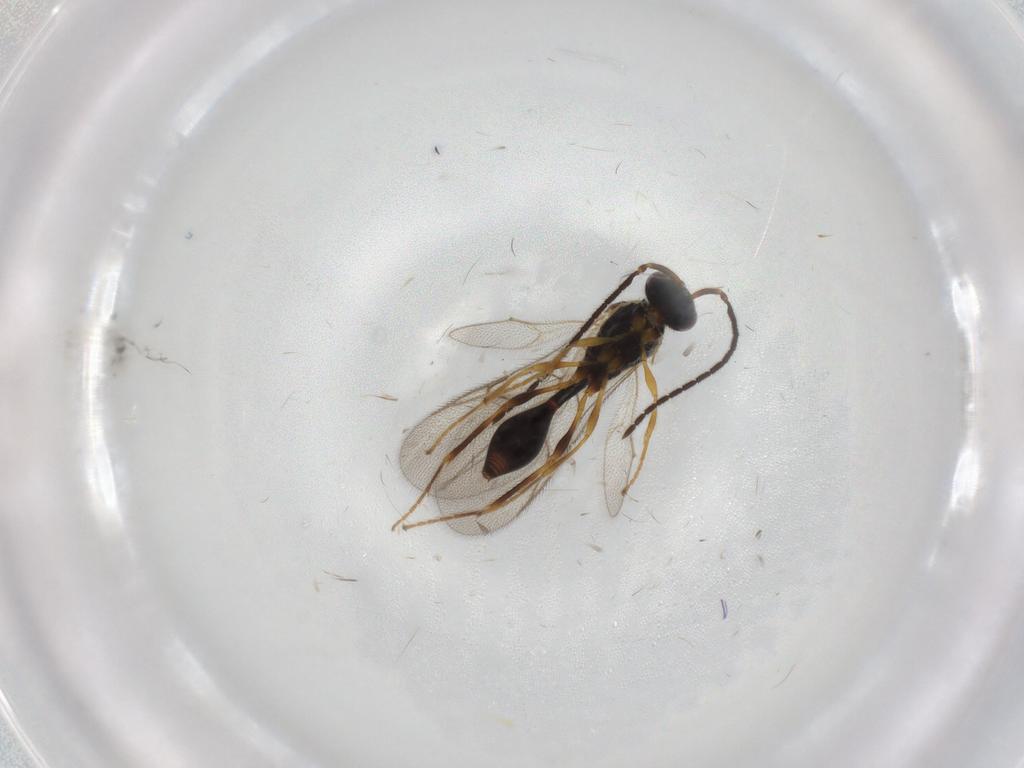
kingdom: Animalia
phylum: Arthropoda
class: Insecta
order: Hymenoptera
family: Diapriidae
